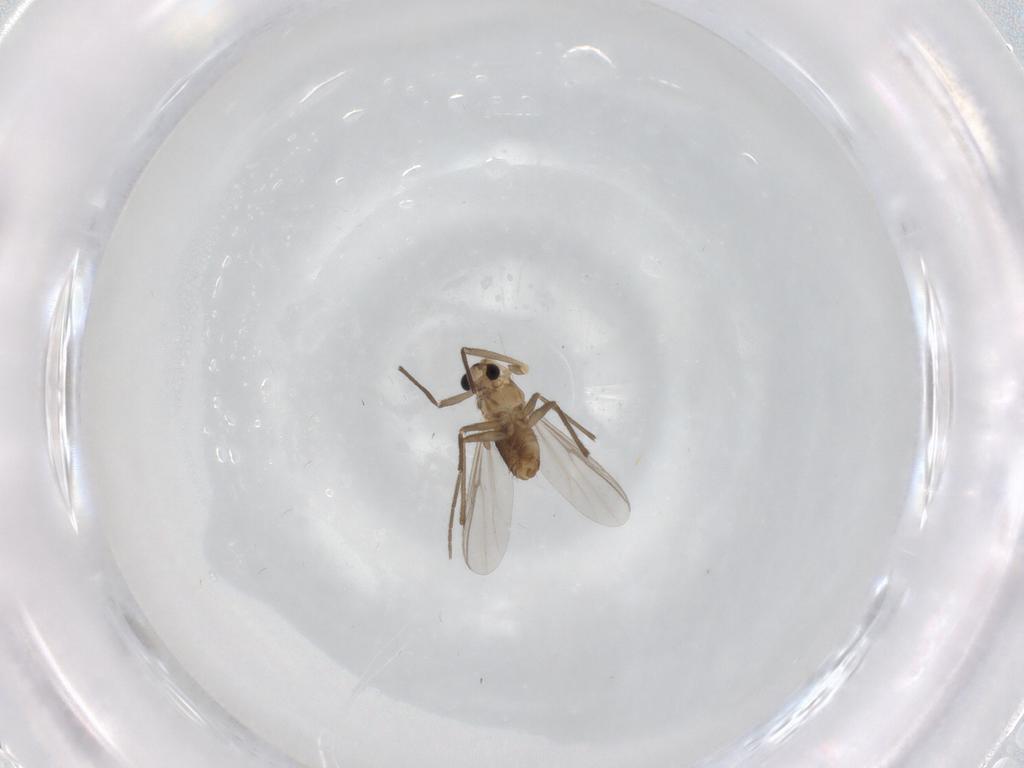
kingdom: Animalia
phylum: Arthropoda
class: Insecta
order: Diptera
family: Chironomidae
